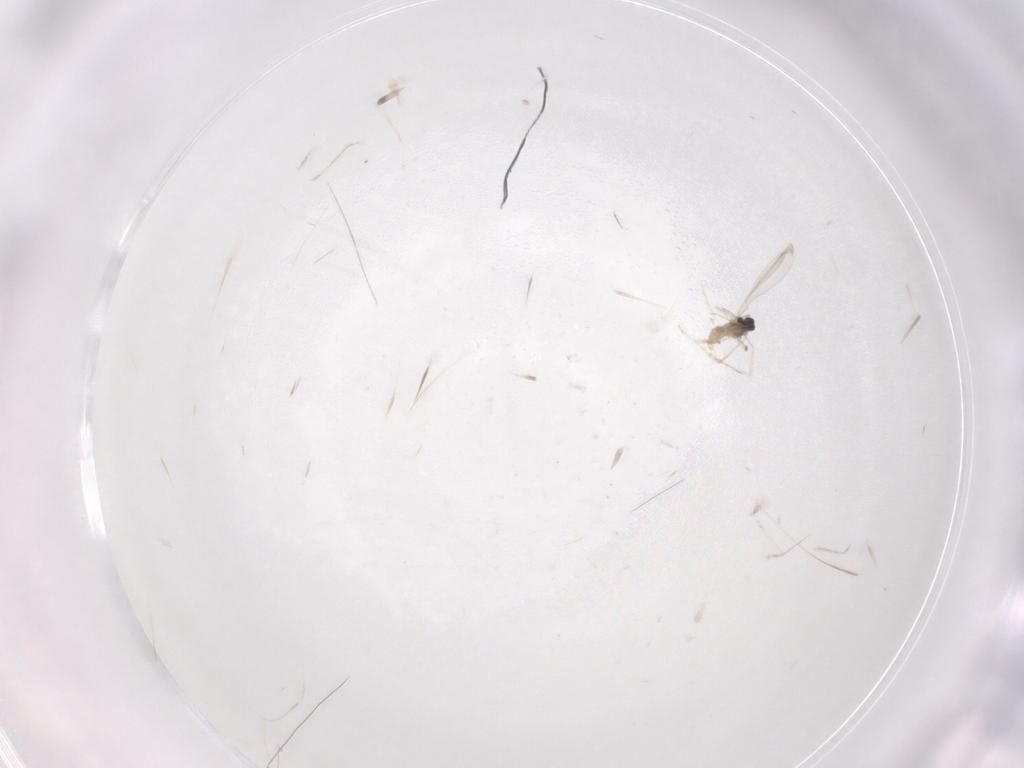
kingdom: Animalia
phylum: Arthropoda
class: Insecta
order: Diptera
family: Cecidomyiidae
